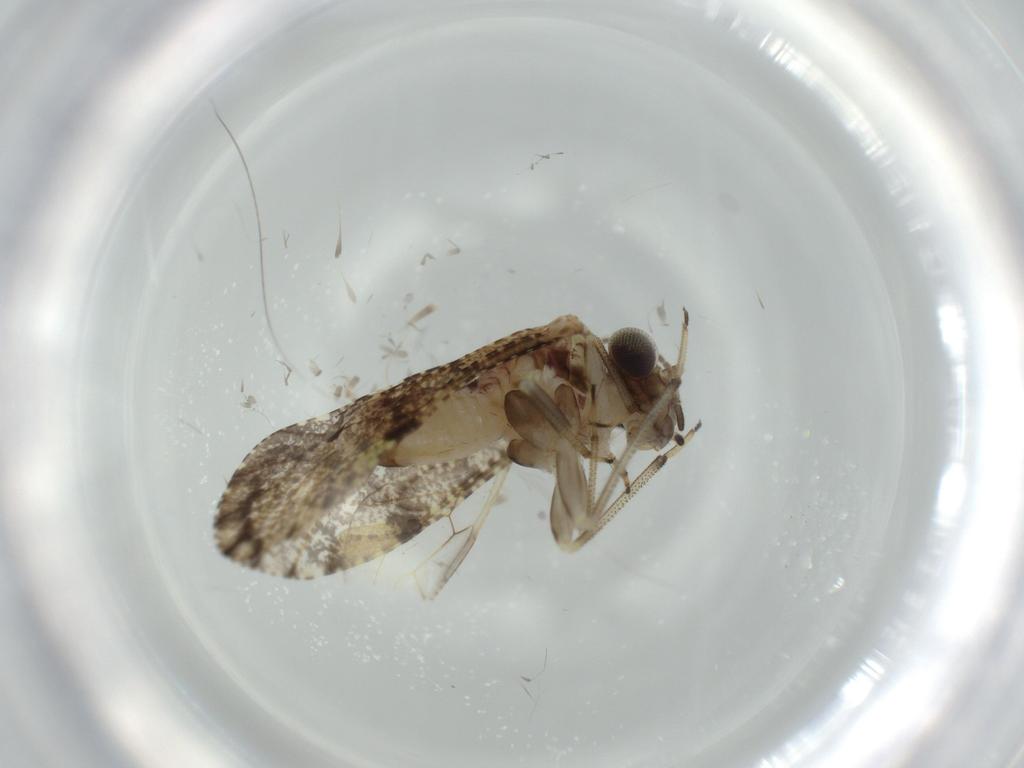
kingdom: Animalia
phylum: Arthropoda
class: Insecta
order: Psocodea
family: Myopsocidae
